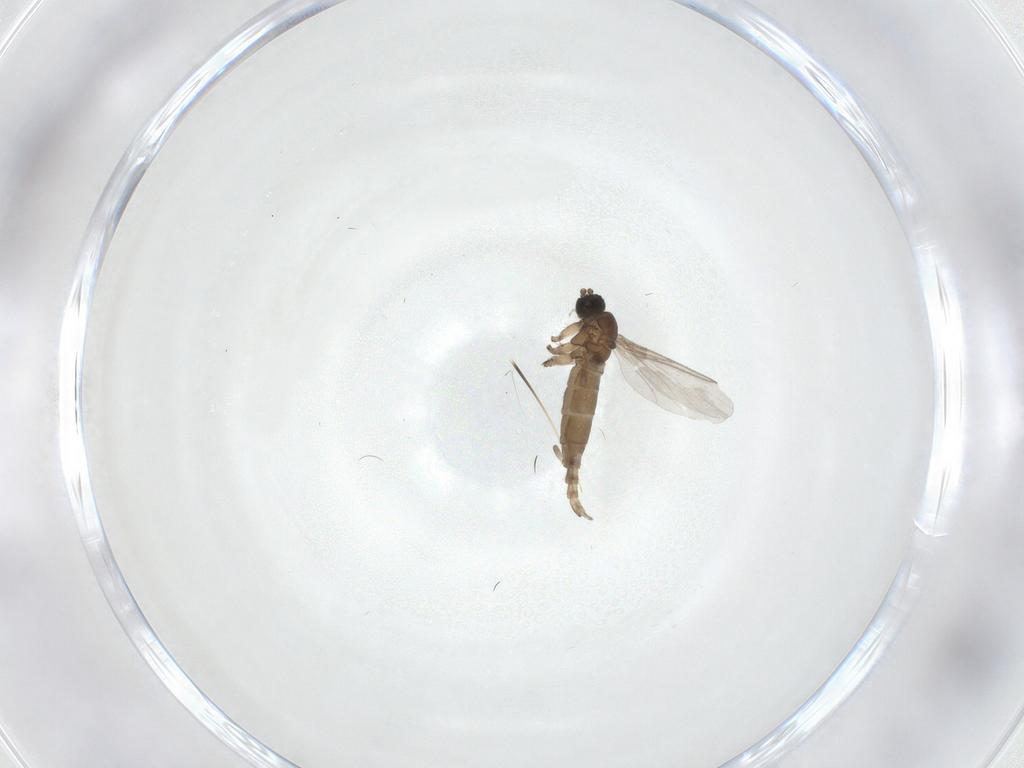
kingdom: Animalia
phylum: Arthropoda
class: Insecta
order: Diptera
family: Sciaridae
